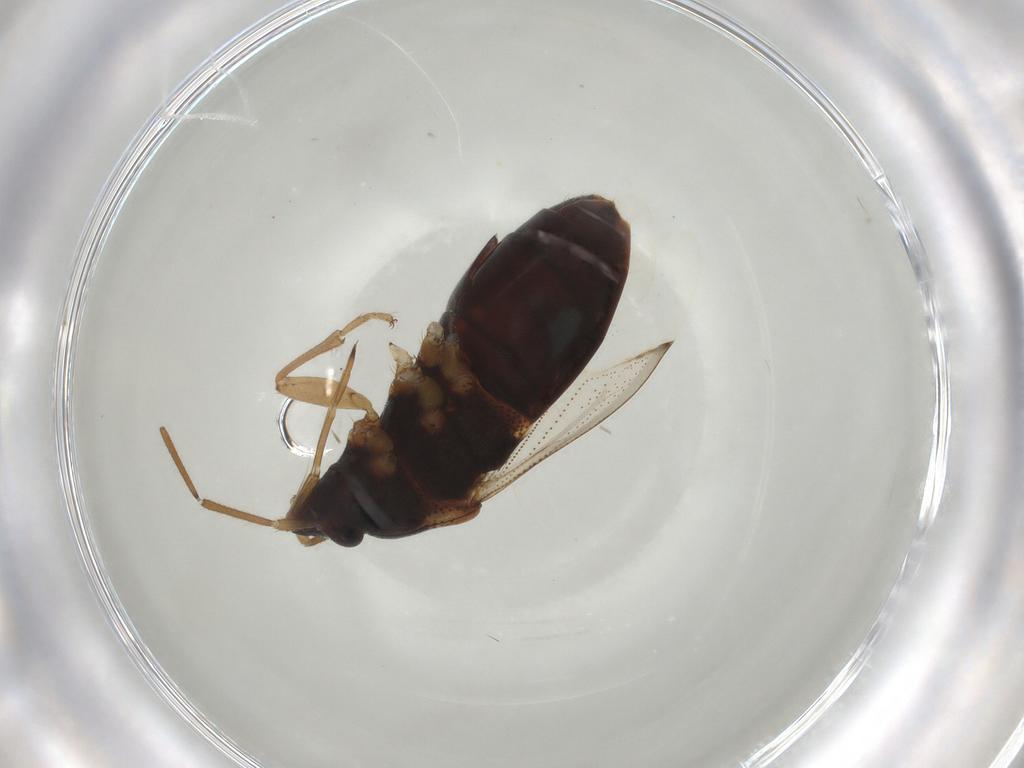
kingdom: Animalia
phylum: Arthropoda
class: Insecta
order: Hemiptera
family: Rhyparochromidae
